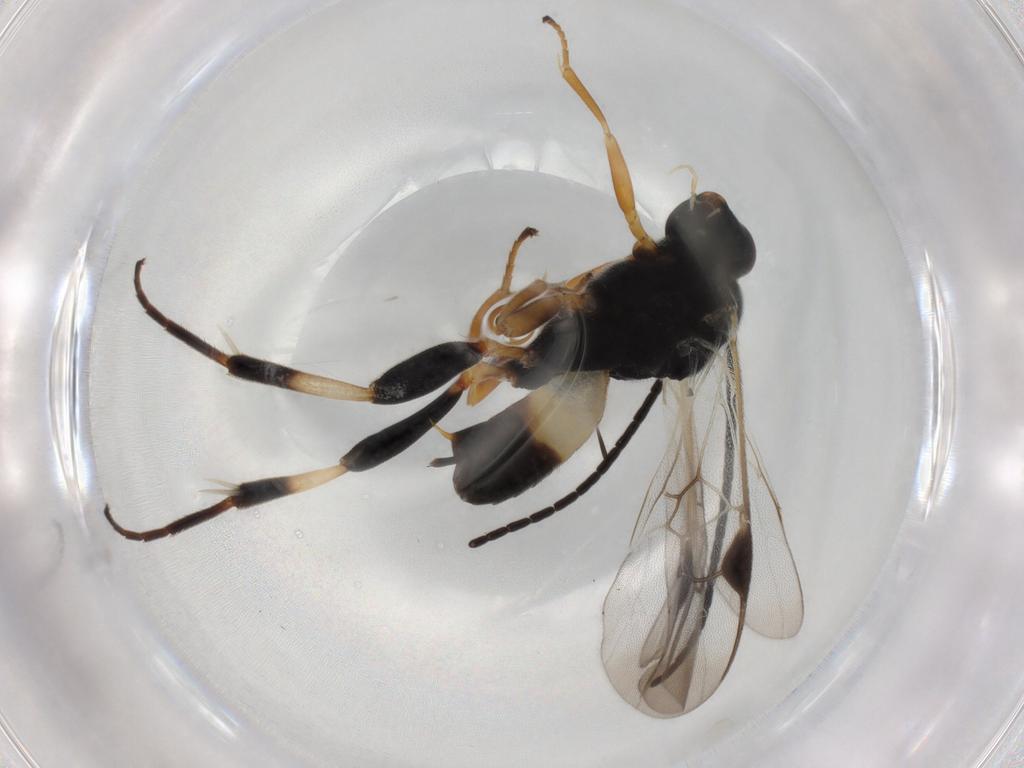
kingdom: Animalia
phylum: Arthropoda
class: Insecta
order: Hymenoptera
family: Braconidae
